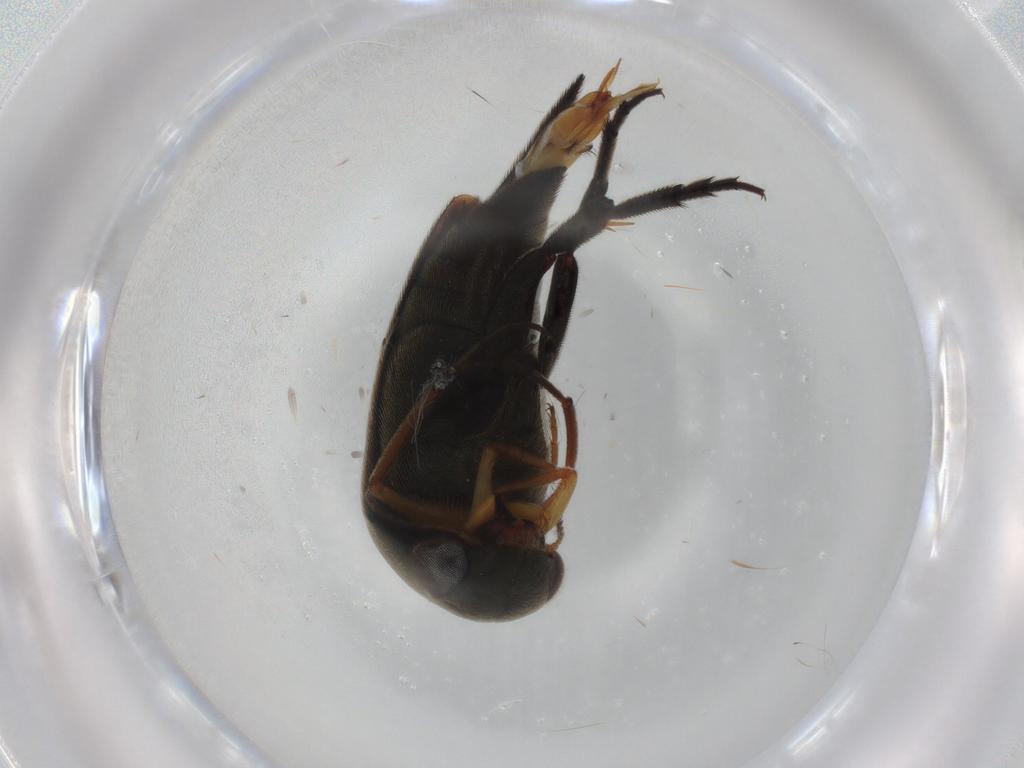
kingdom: Animalia
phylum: Arthropoda
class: Insecta
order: Coleoptera
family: Mordellidae
